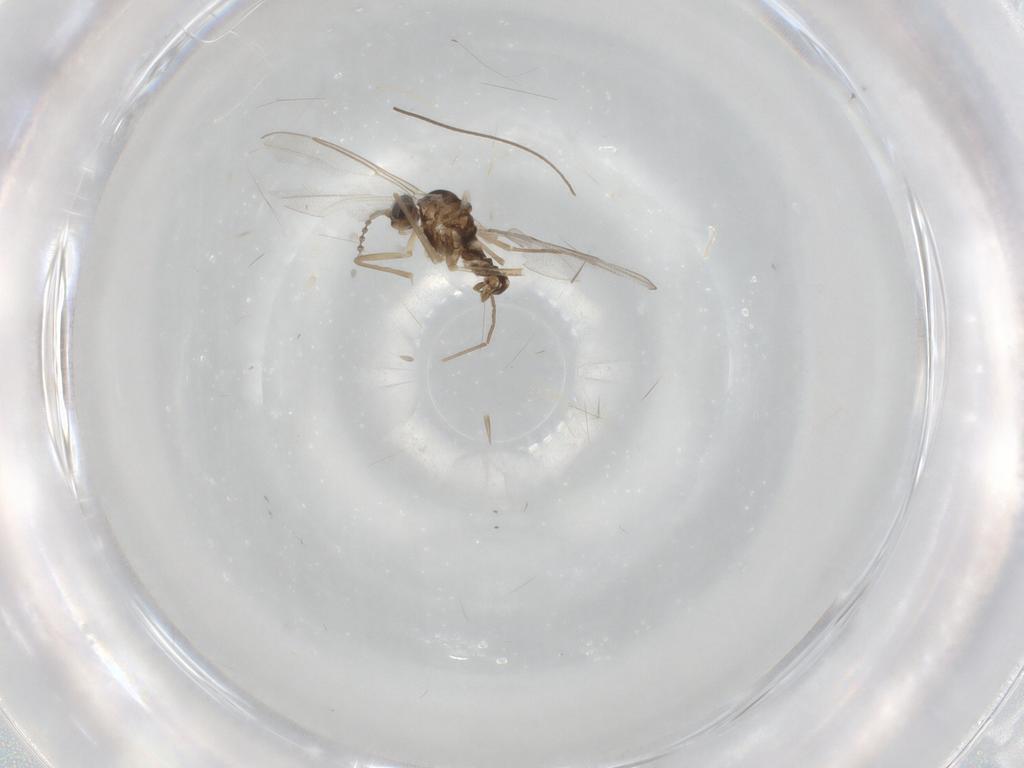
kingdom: Animalia
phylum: Arthropoda
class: Insecta
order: Diptera
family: Cecidomyiidae
